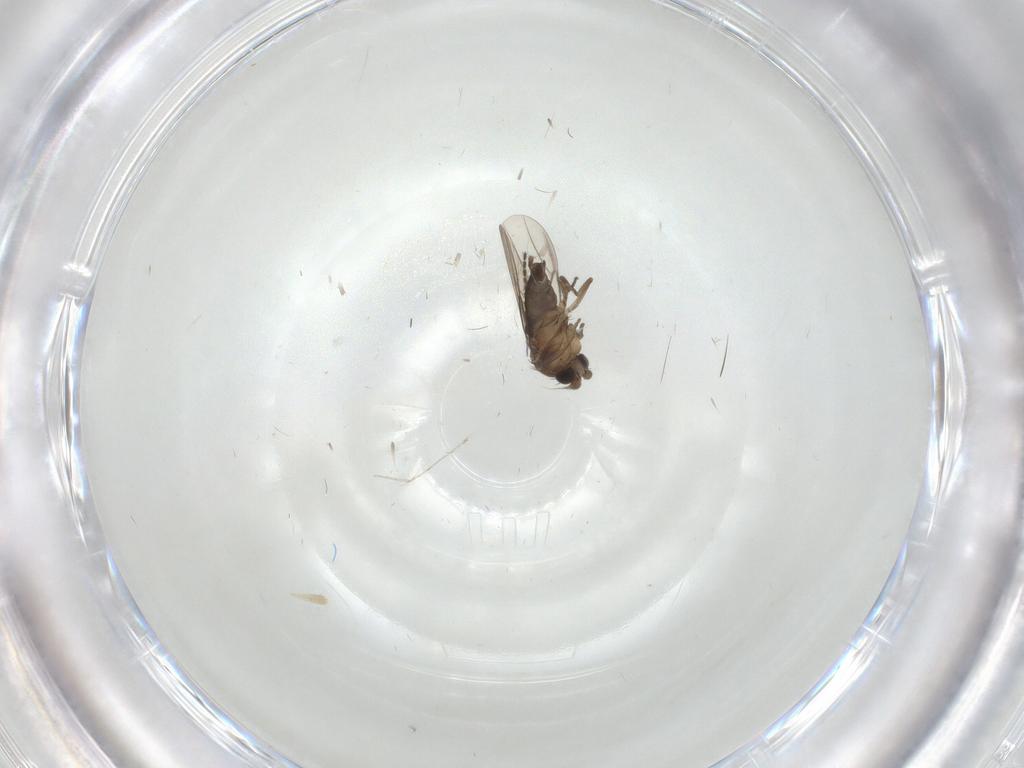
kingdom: Animalia
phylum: Arthropoda
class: Insecta
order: Diptera
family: Phoridae
